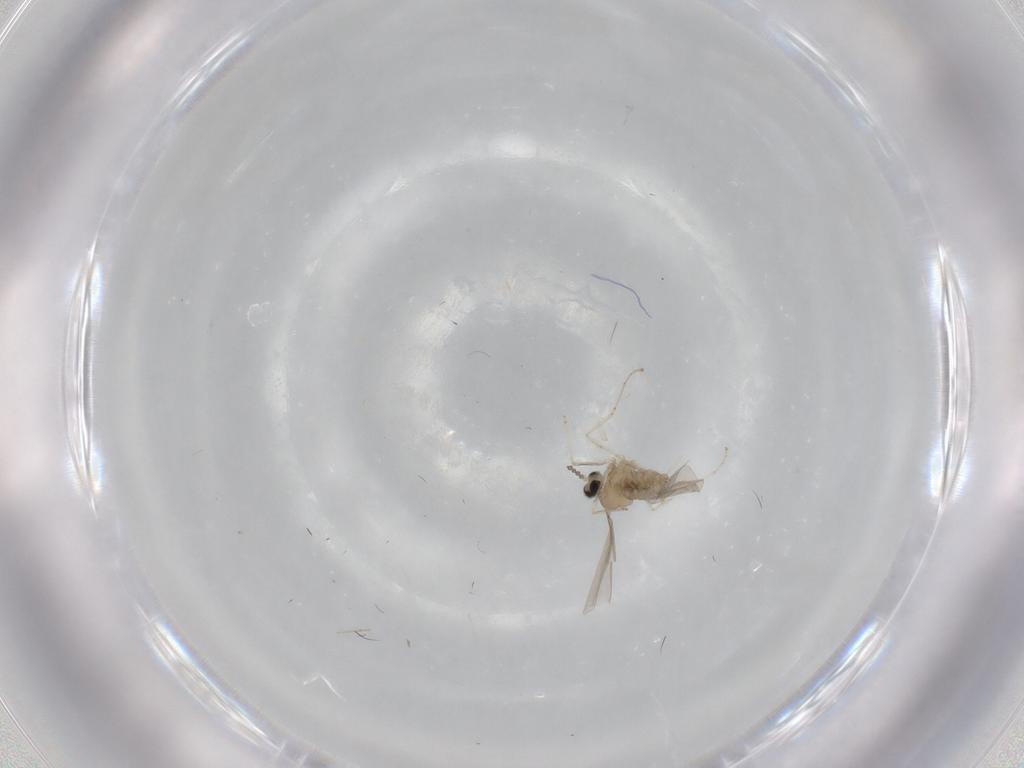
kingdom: Animalia
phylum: Arthropoda
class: Insecta
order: Diptera
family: Cecidomyiidae
